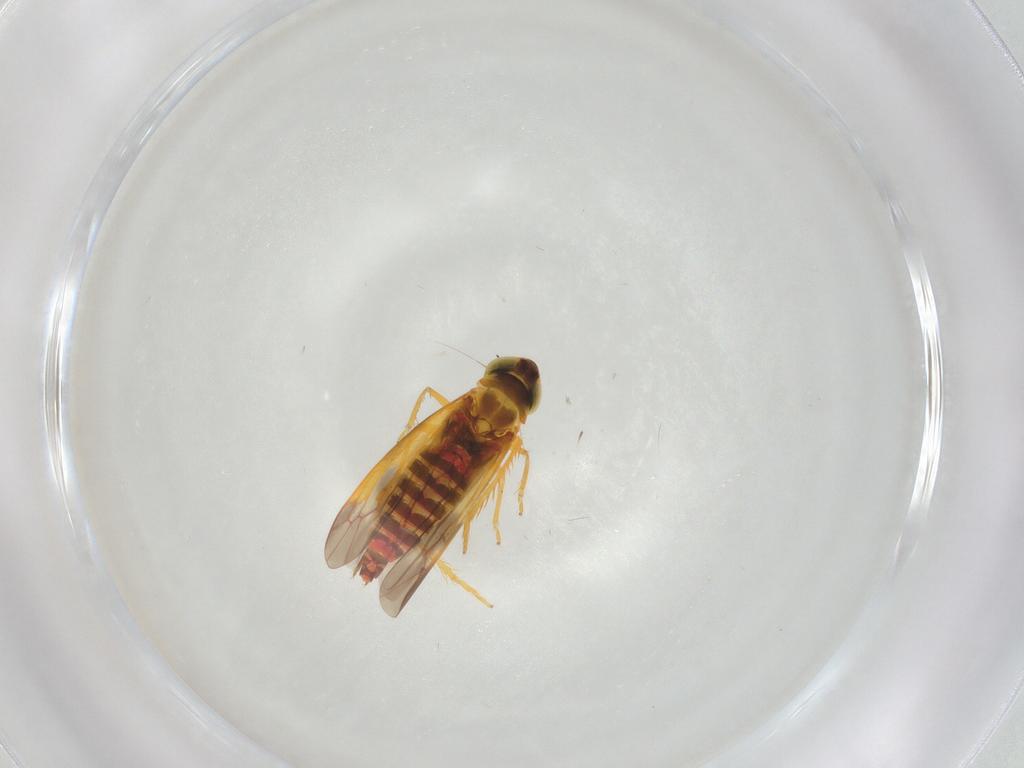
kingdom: Animalia
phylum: Arthropoda
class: Insecta
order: Hemiptera
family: Cicadellidae
